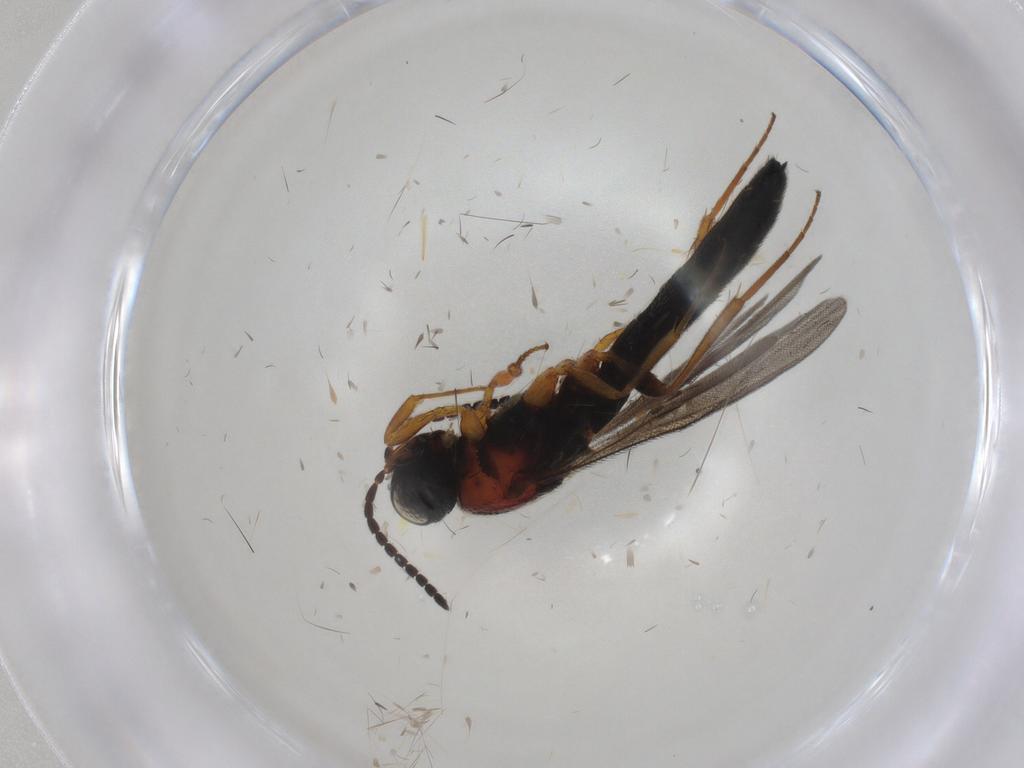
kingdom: Animalia
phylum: Arthropoda
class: Insecta
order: Hymenoptera
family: Scelionidae
